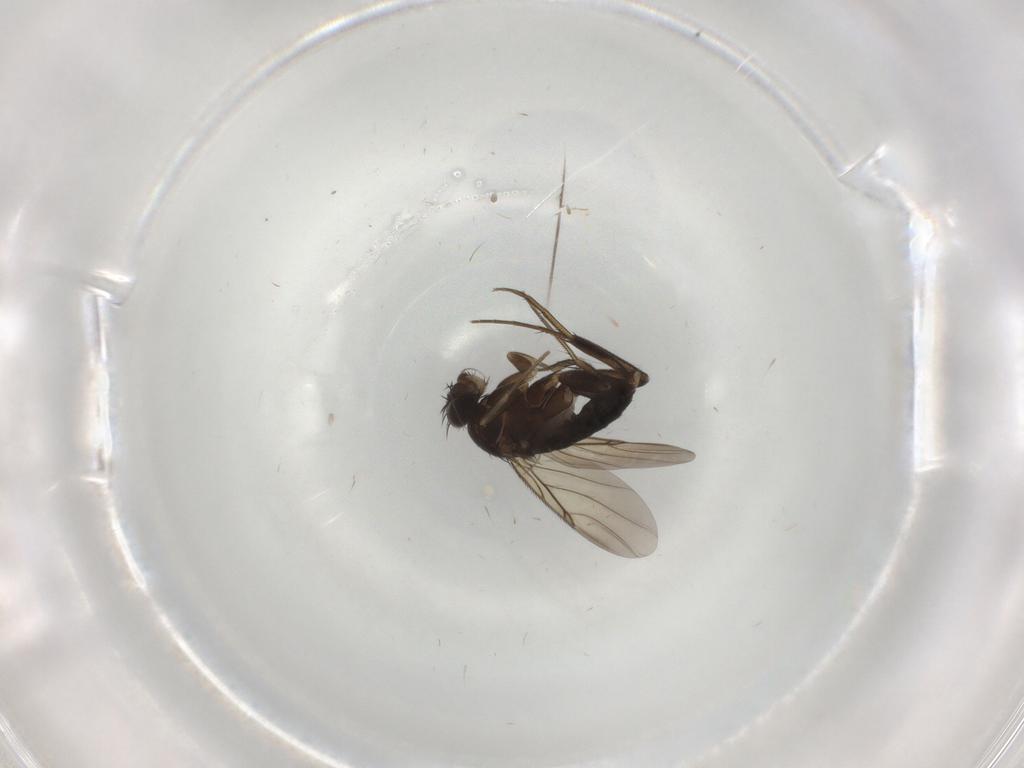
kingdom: Animalia
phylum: Arthropoda
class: Insecta
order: Diptera
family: Phoridae
